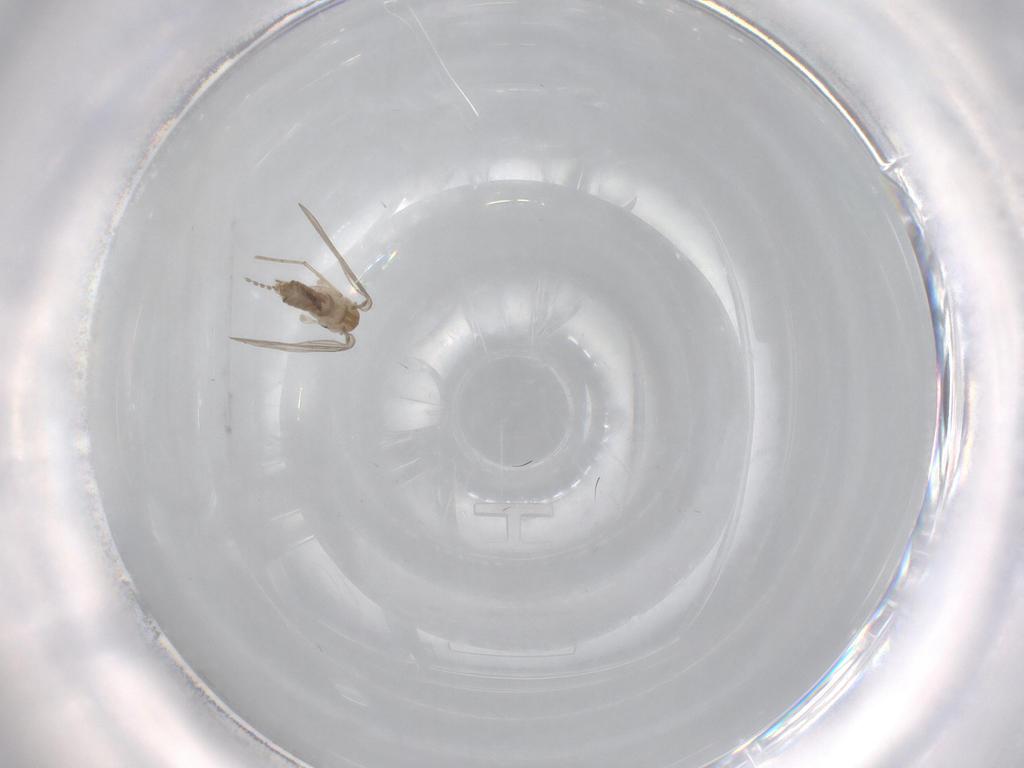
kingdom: Animalia
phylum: Arthropoda
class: Insecta
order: Diptera
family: Psychodidae
